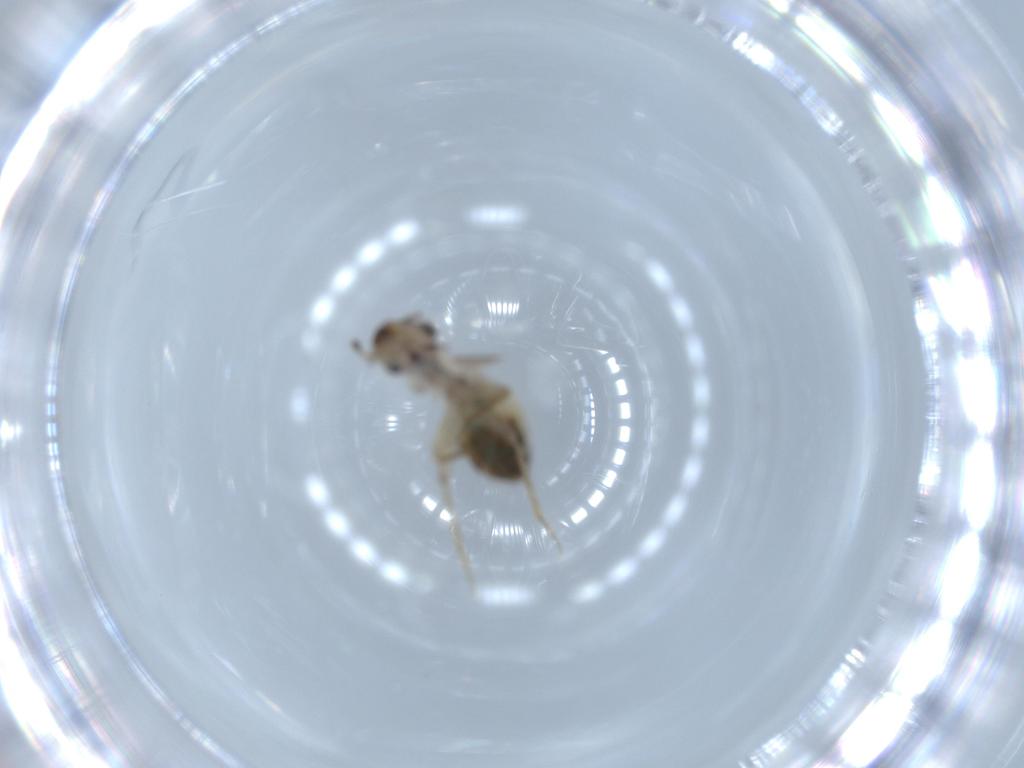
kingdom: Animalia
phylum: Arthropoda
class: Insecta
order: Psocodea
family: Lepidopsocidae
